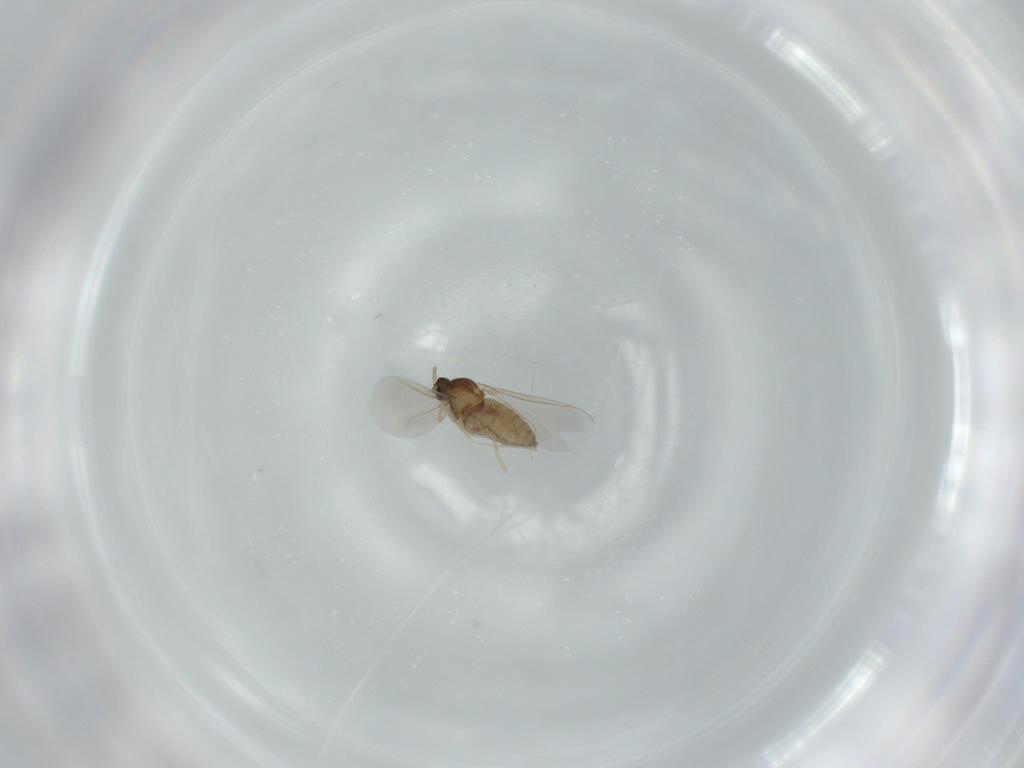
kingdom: Animalia
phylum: Arthropoda
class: Insecta
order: Diptera
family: Cecidomyiidae
